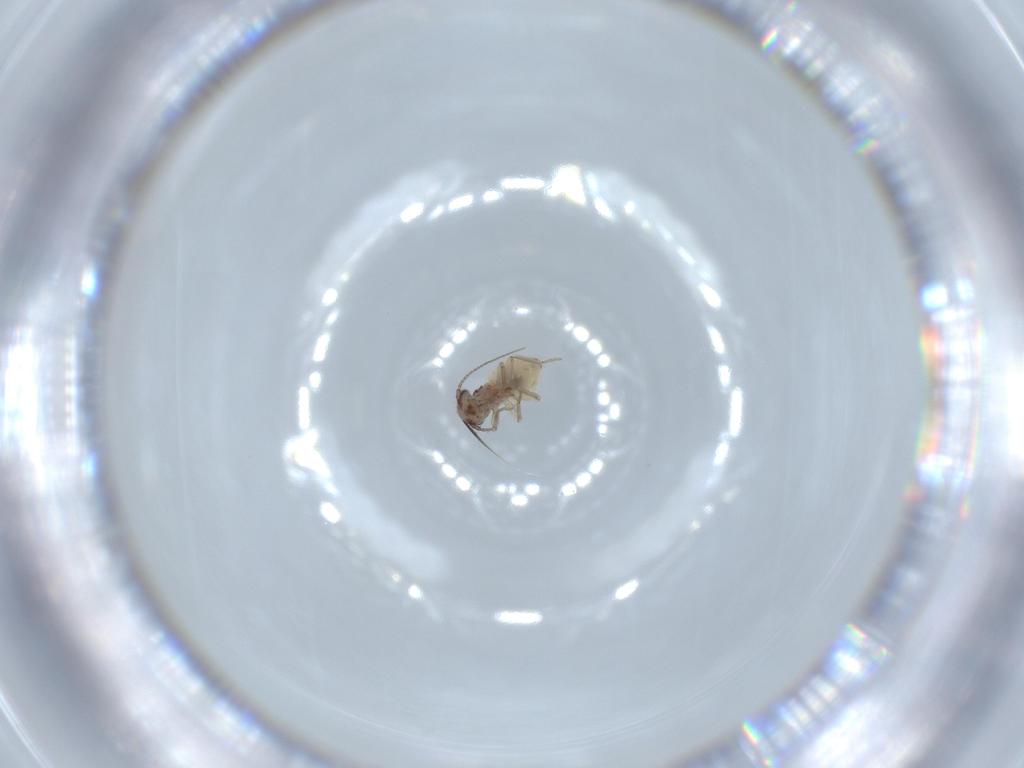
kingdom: Animalia
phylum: Arthropoda
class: Insecta
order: Psocodea
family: Lepidopsocidae
